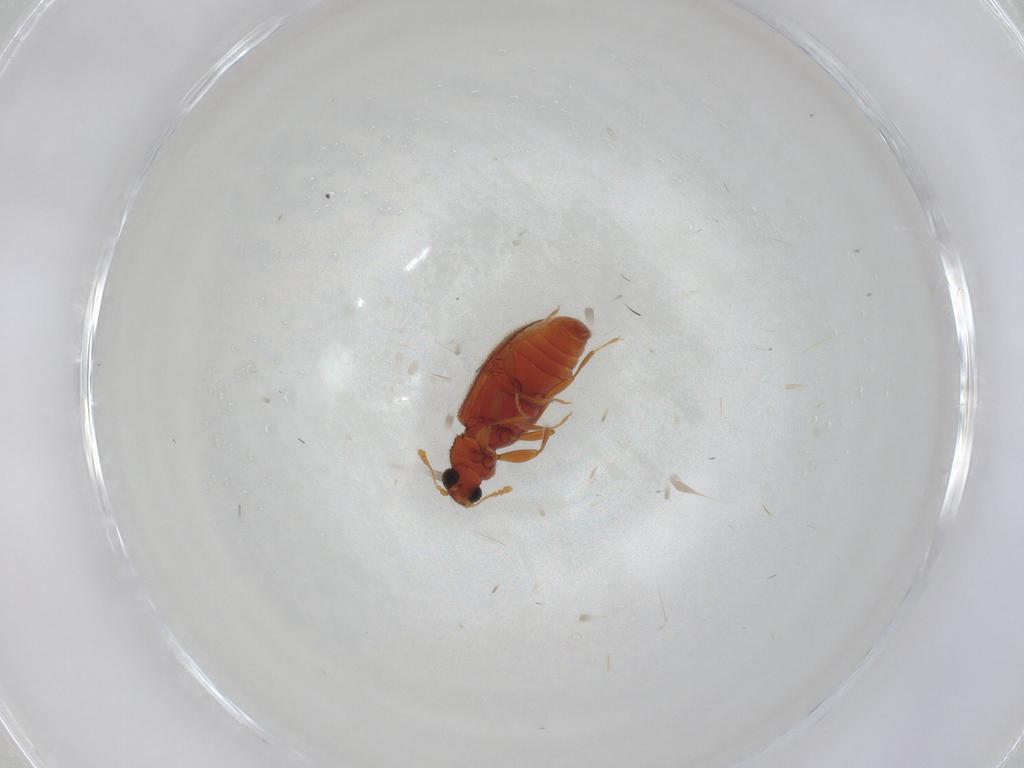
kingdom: Animalia
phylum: Arthropoda
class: Insecta
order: Coleoptera
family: Latridiidae
